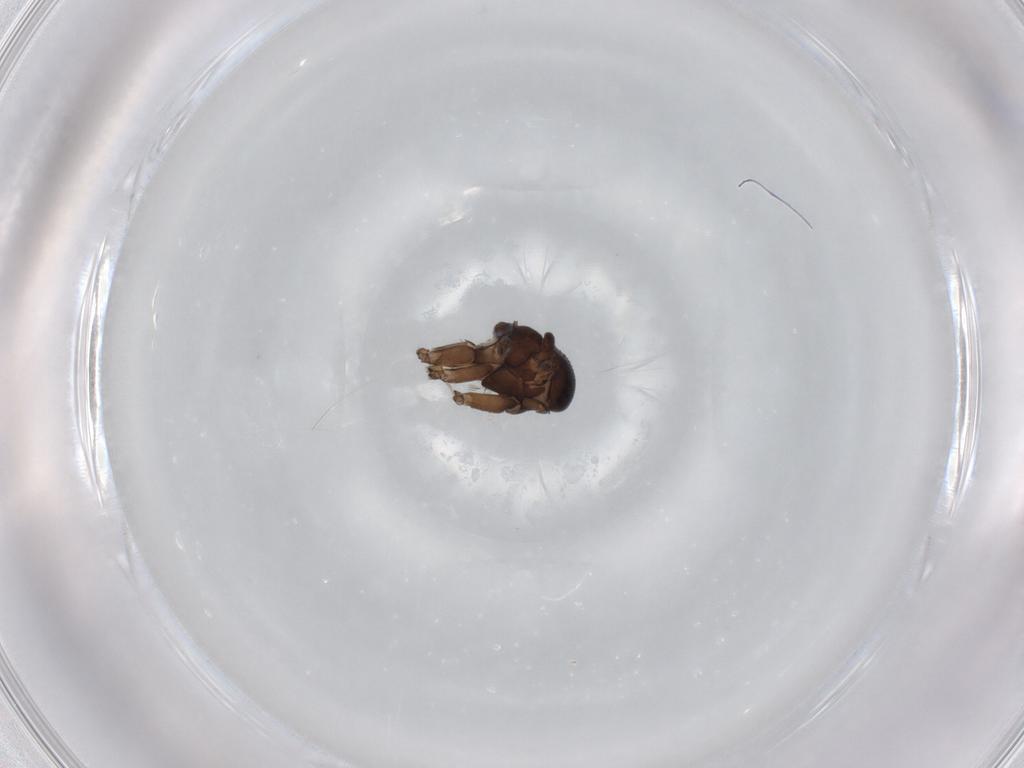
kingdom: Animalia
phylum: Arthropoda
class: Insecta
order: Diptera
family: Sciaridae
